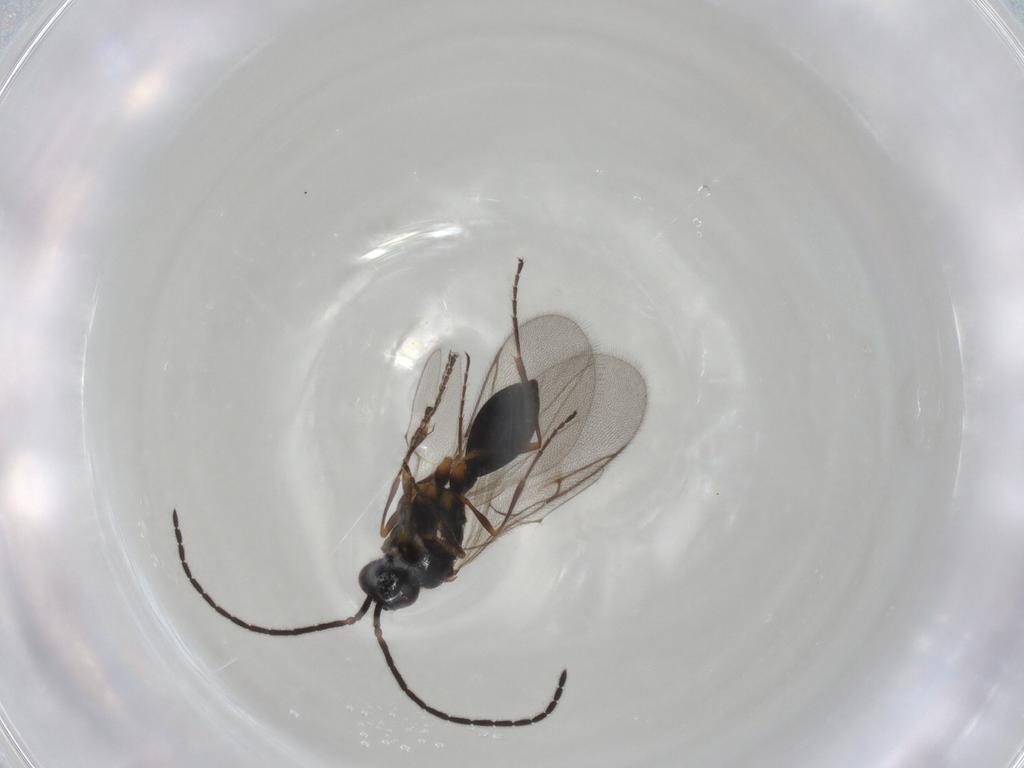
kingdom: Animalia
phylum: Arthropoda
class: Insecta
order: Hymenoptera
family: Diapriidae
